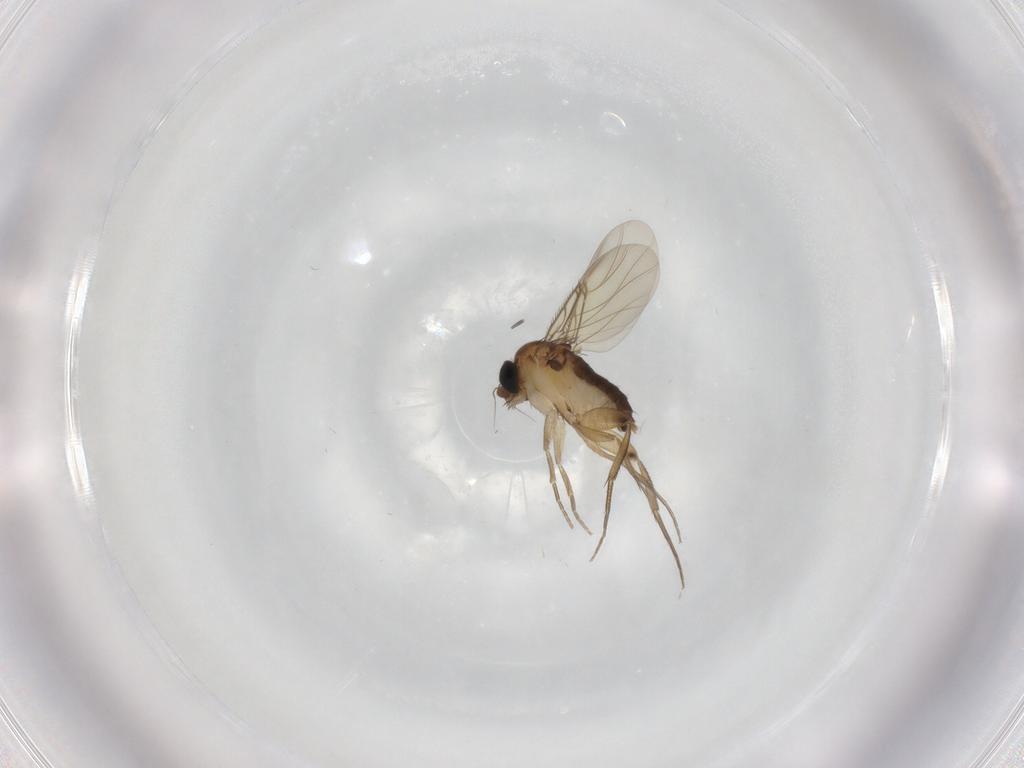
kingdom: Animalia
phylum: Arthropoda
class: Insecta
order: Diptera
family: Phoridae
